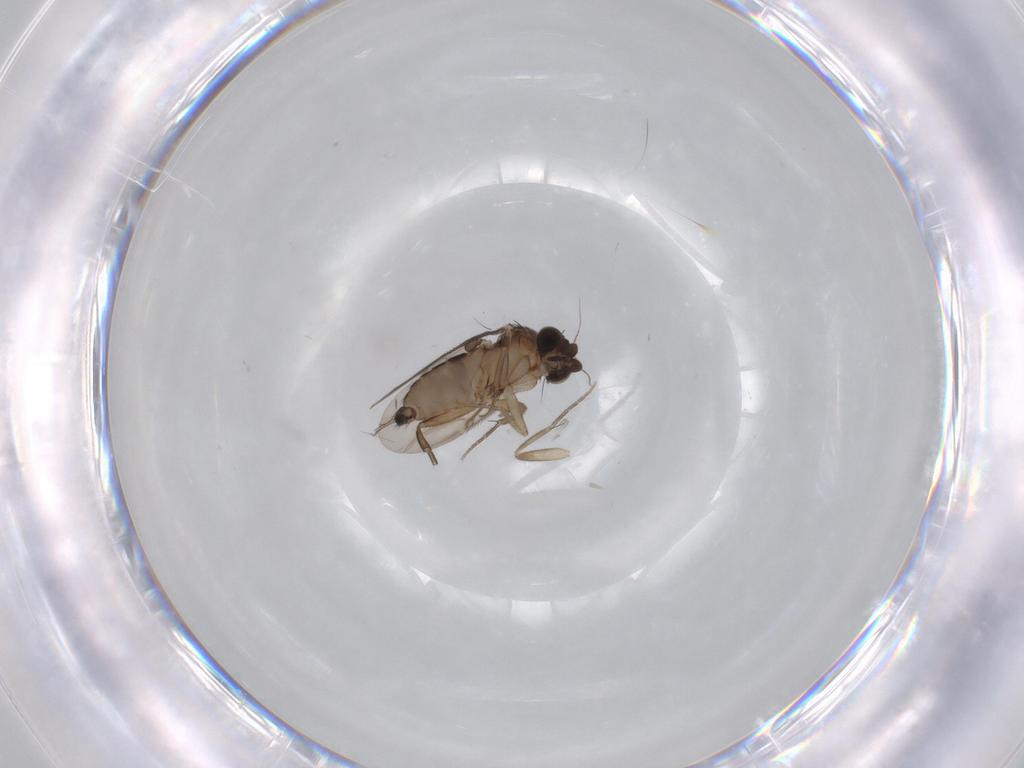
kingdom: Animalia
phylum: Arthropoda
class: Insecta
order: Diptera
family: Phoridae
